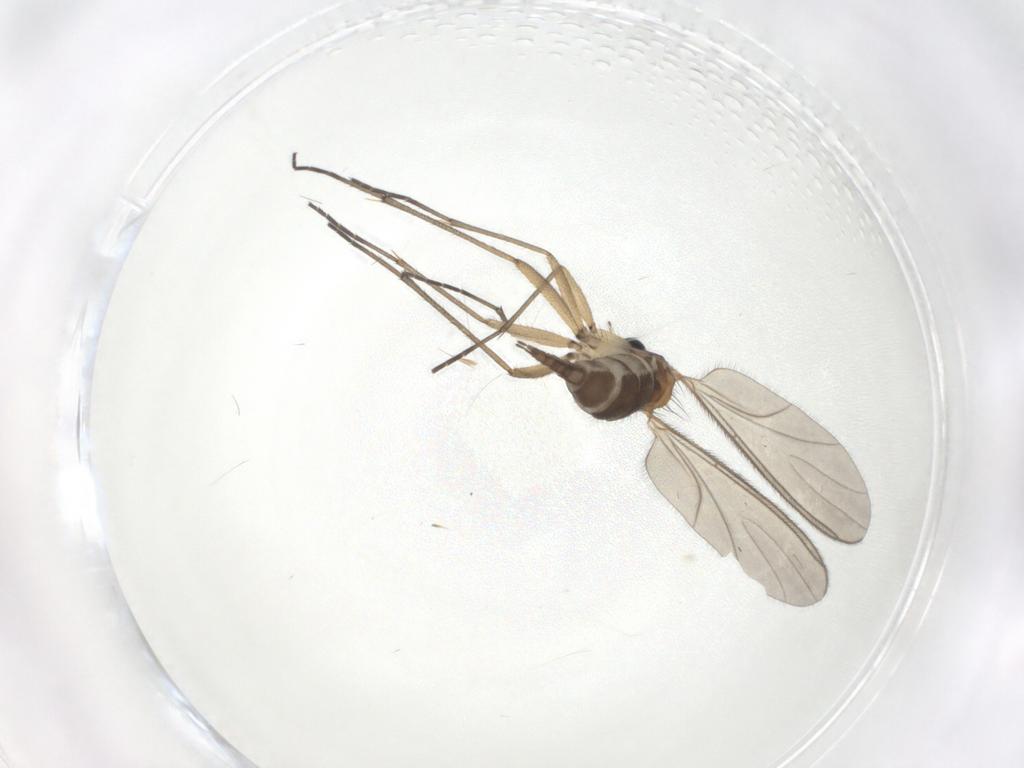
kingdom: Animalia
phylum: Arthropoda
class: Insecta
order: Diptera
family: Sciaridae
